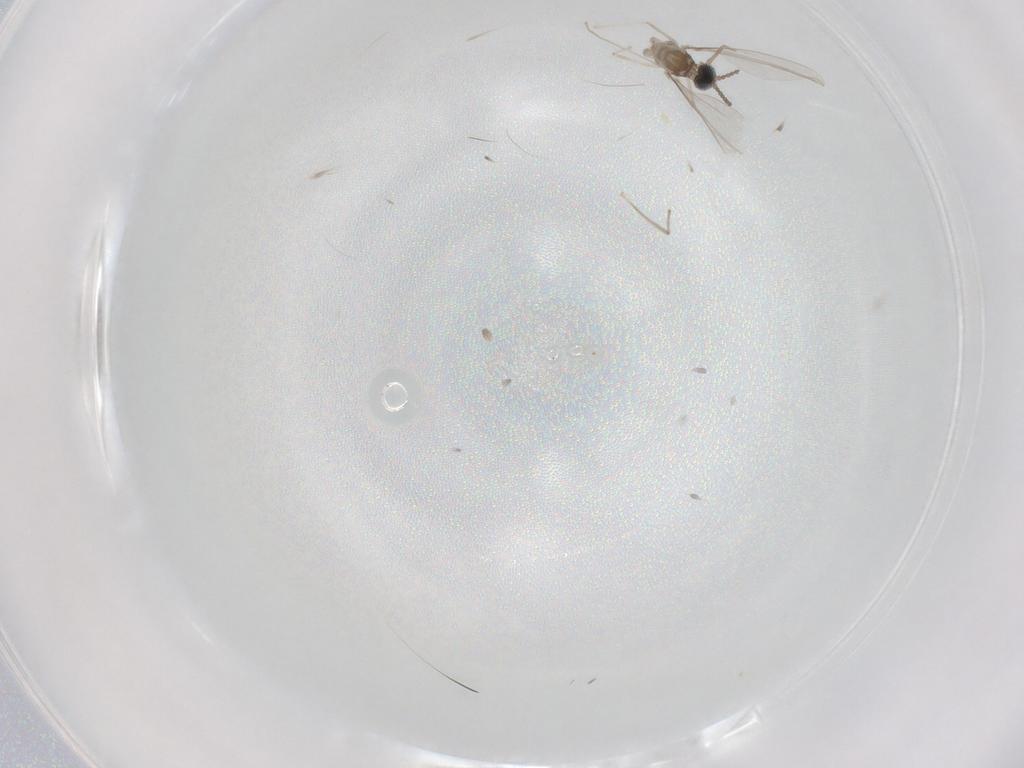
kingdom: Animalia
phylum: Arthropoda
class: Insecta
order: Diptera
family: Cecidomyiidae
